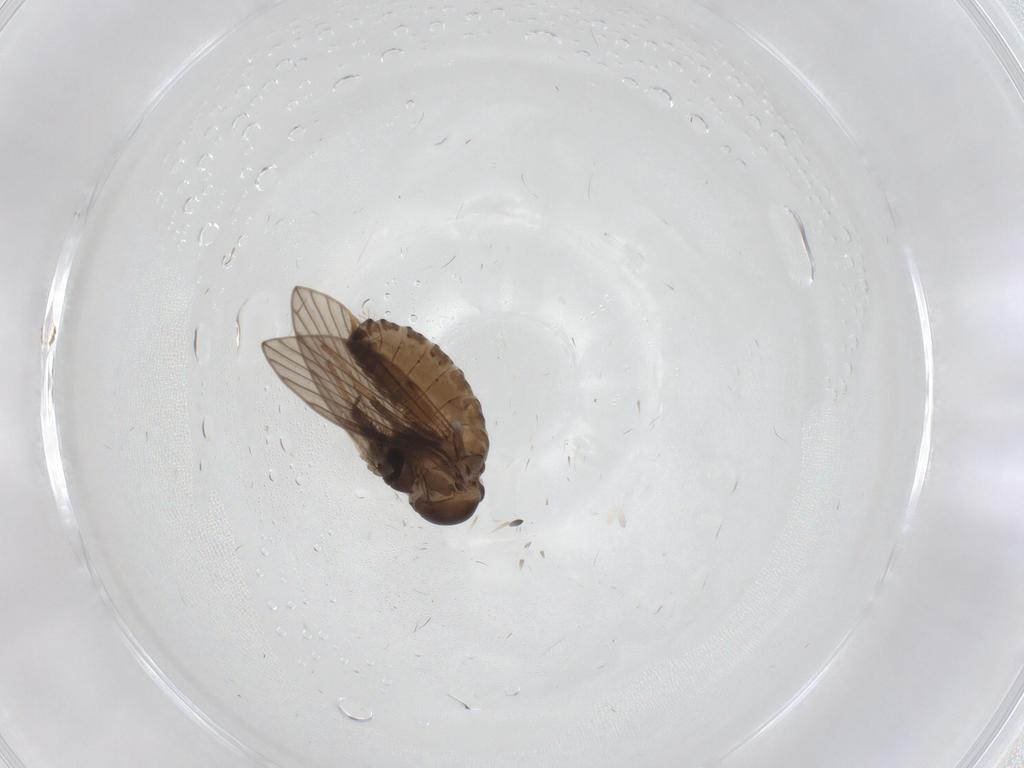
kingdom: Animalia
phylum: Arthropoda
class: Insecta
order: Diptera
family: Psychodidae
